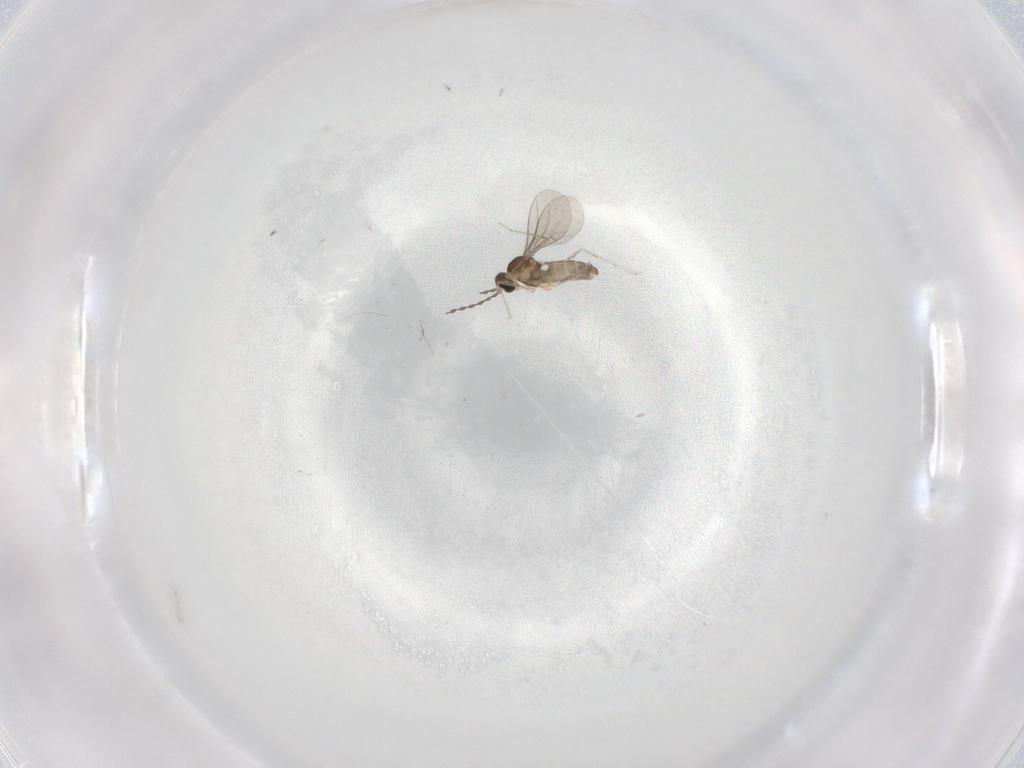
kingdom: Animalia
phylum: Arthropoda
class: Insecta
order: Diptera
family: Cecidomyiidae
